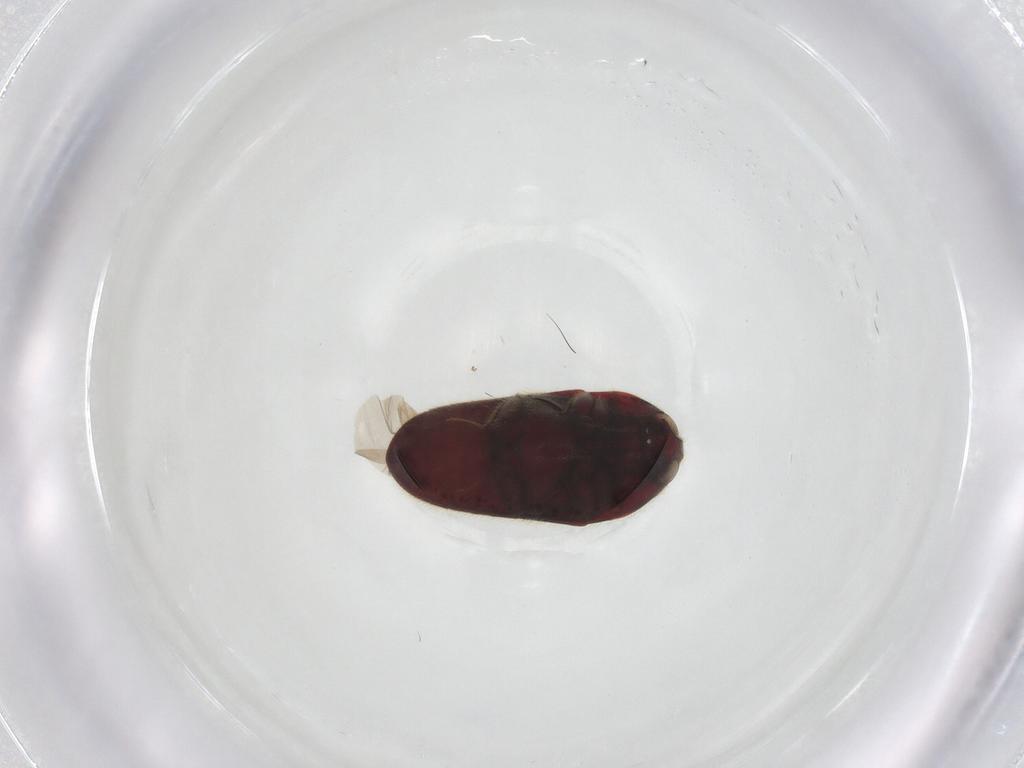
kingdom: Animalia
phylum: Arthropoda
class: Insecta
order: Coleoptera
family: Throscidae
